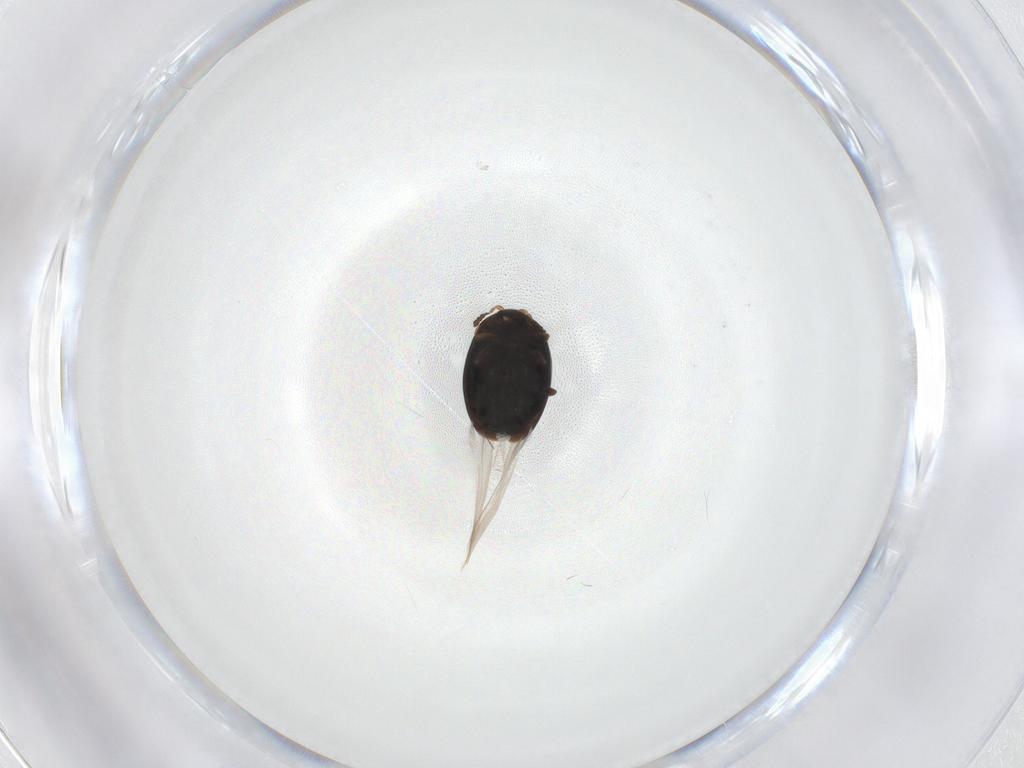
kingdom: Animalia
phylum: Arthropoda
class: Insecta
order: Coleoptera
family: Corylophidae
